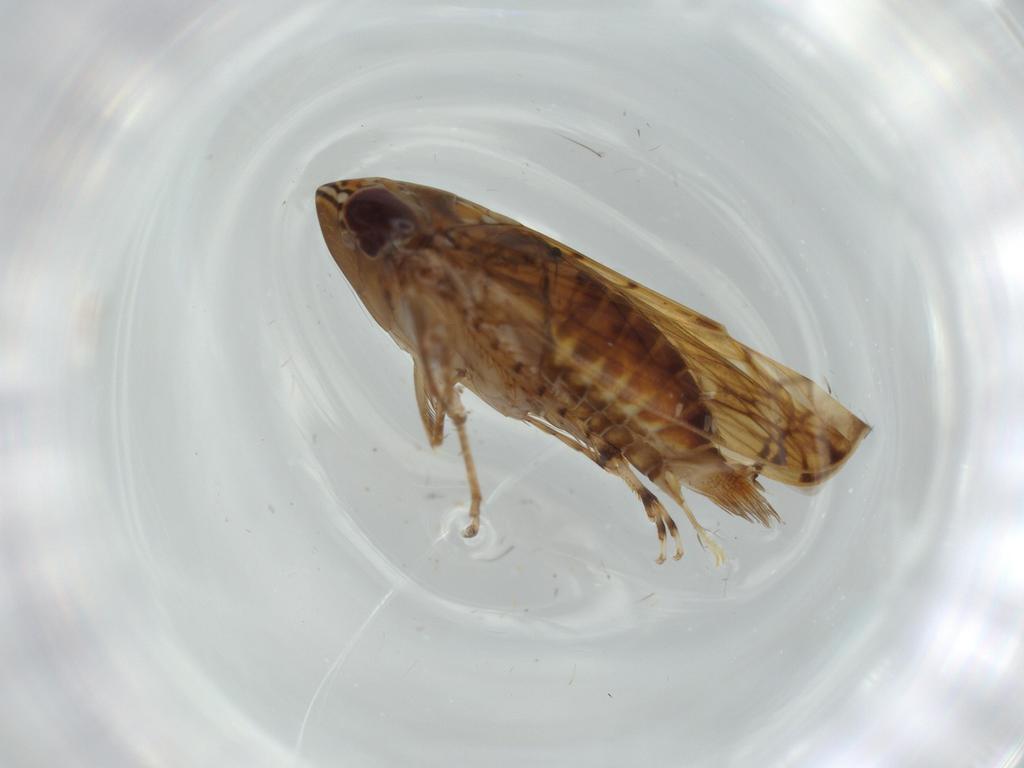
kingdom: Animalia
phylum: Arthropoda
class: Insecta
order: Hemiptera
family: Cicadellidae
